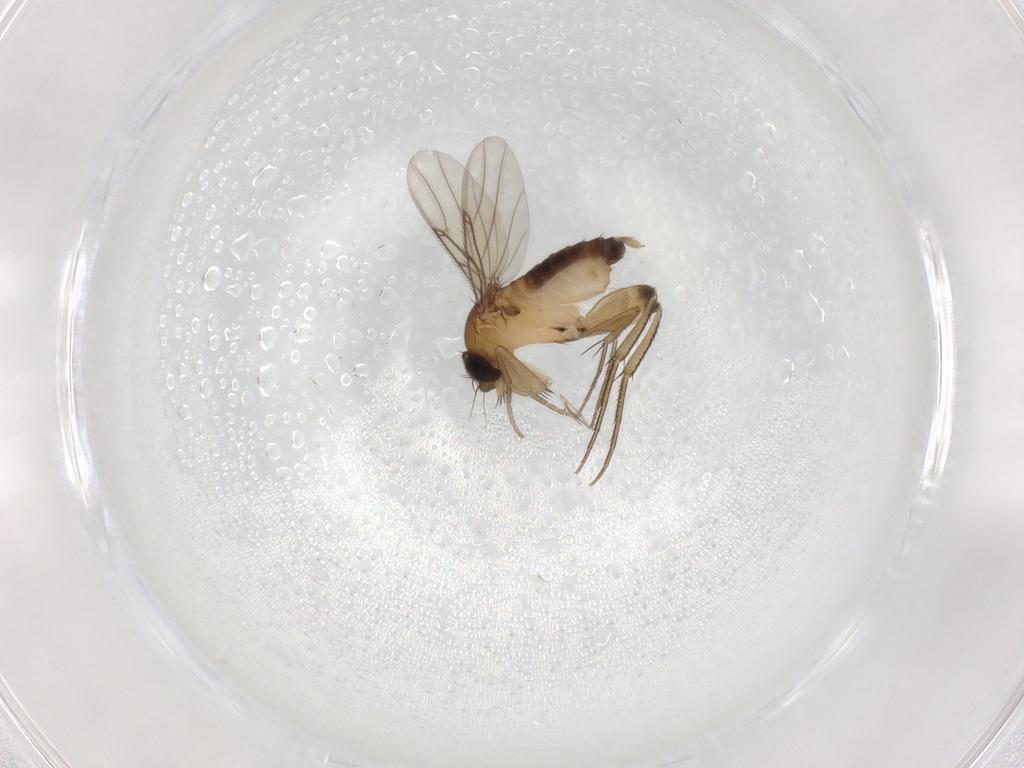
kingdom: Animalia
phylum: Arthropoda
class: Insecta
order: Diptera
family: Phoridae
